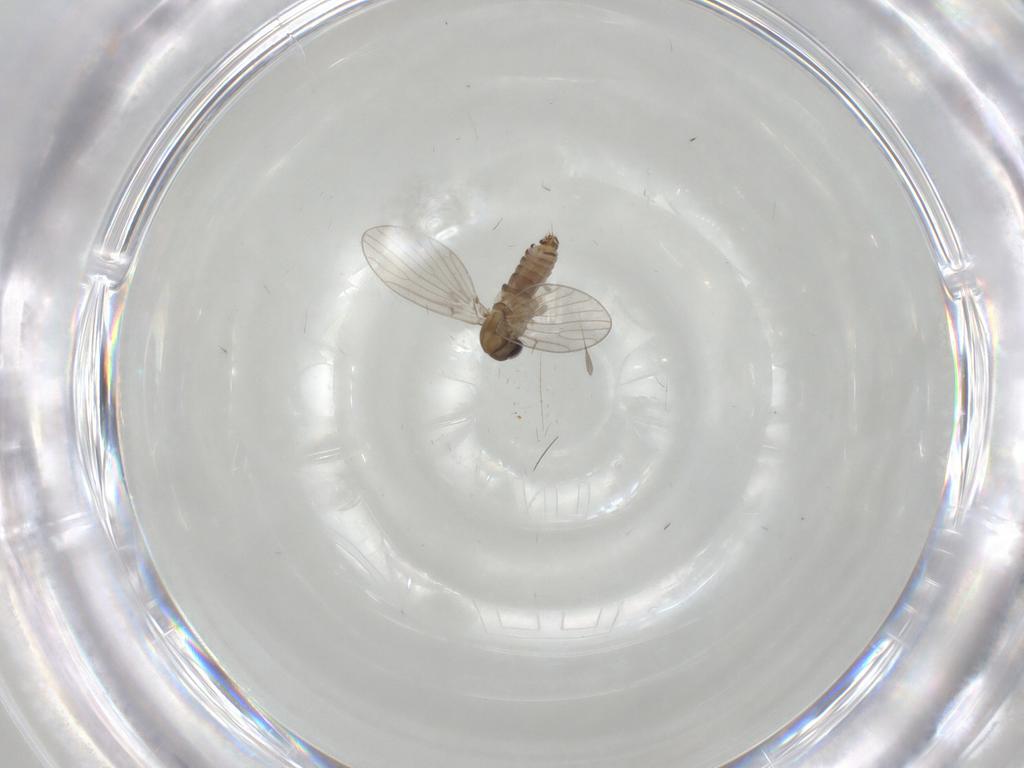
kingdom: Animalia
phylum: Arthropoda
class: Insecta
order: Diptera
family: Psychodidae
